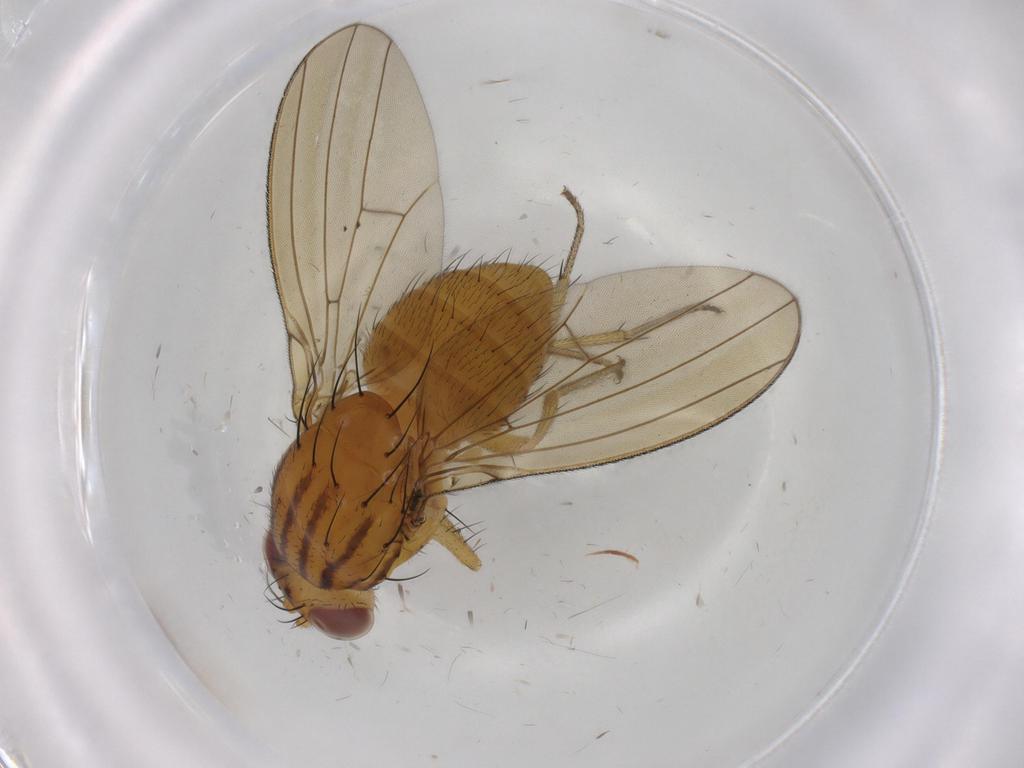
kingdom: Animalia
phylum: Arthropoda
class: Insecta
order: Diptera
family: Lauxaniidae
